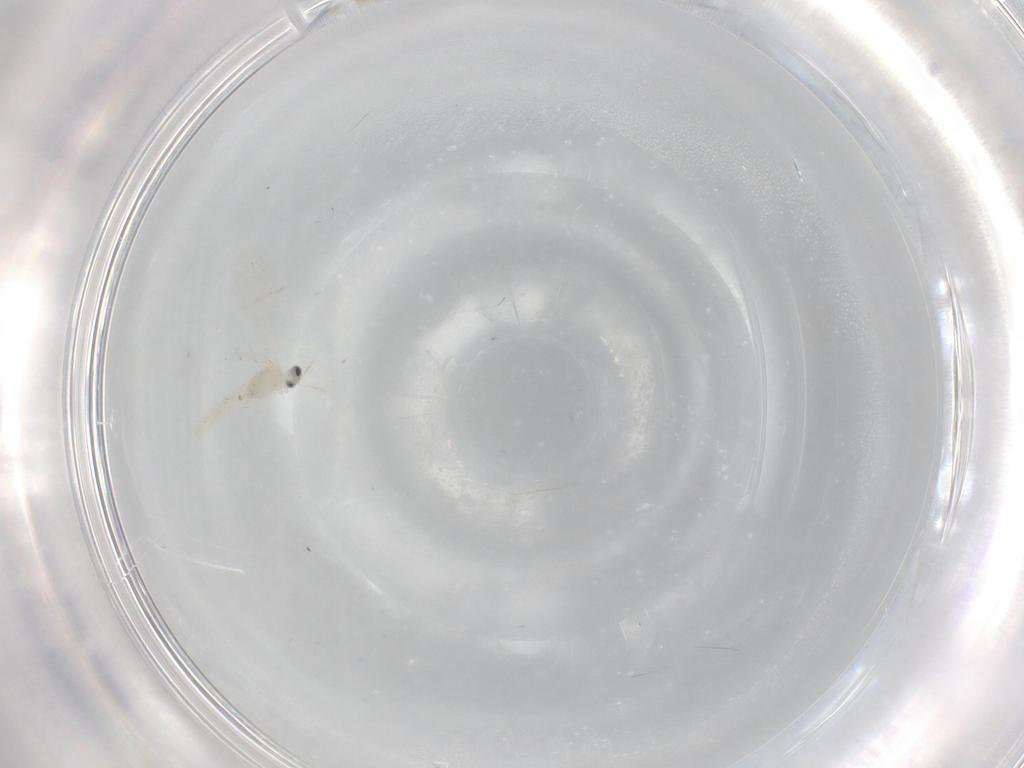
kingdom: Animalia
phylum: Arthropoda
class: Insecta
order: Diptera
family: Cecidomyiidae
